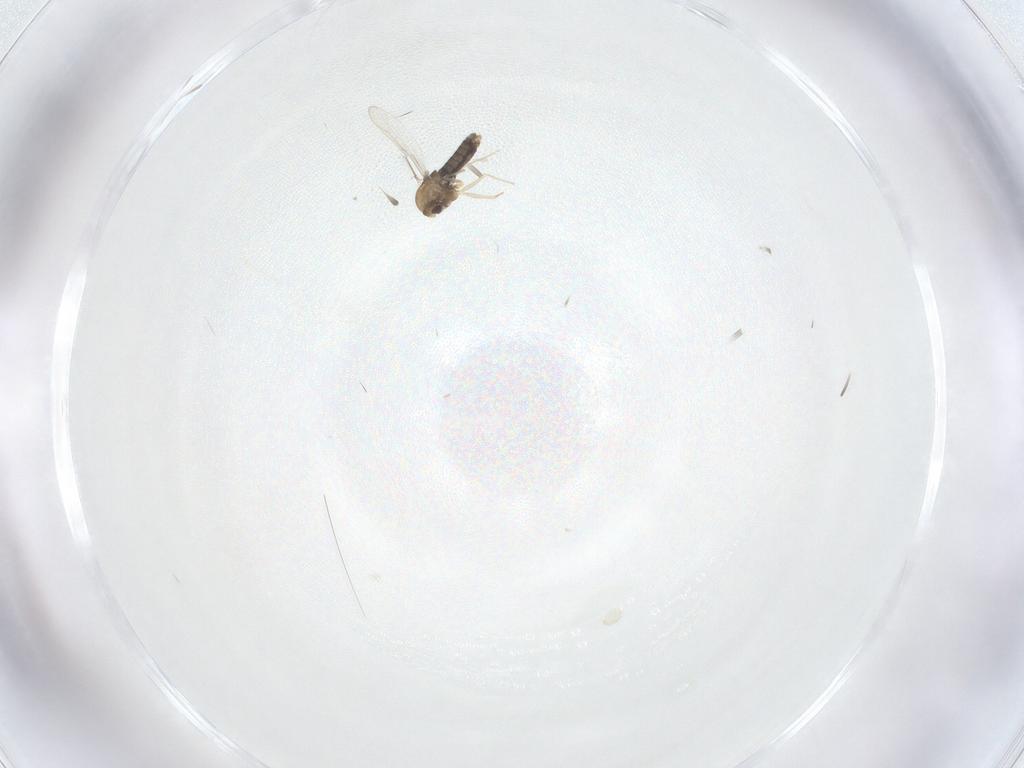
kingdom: Animalia
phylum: Arthropoda
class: Insecta
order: Diptera
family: Chironomidae
